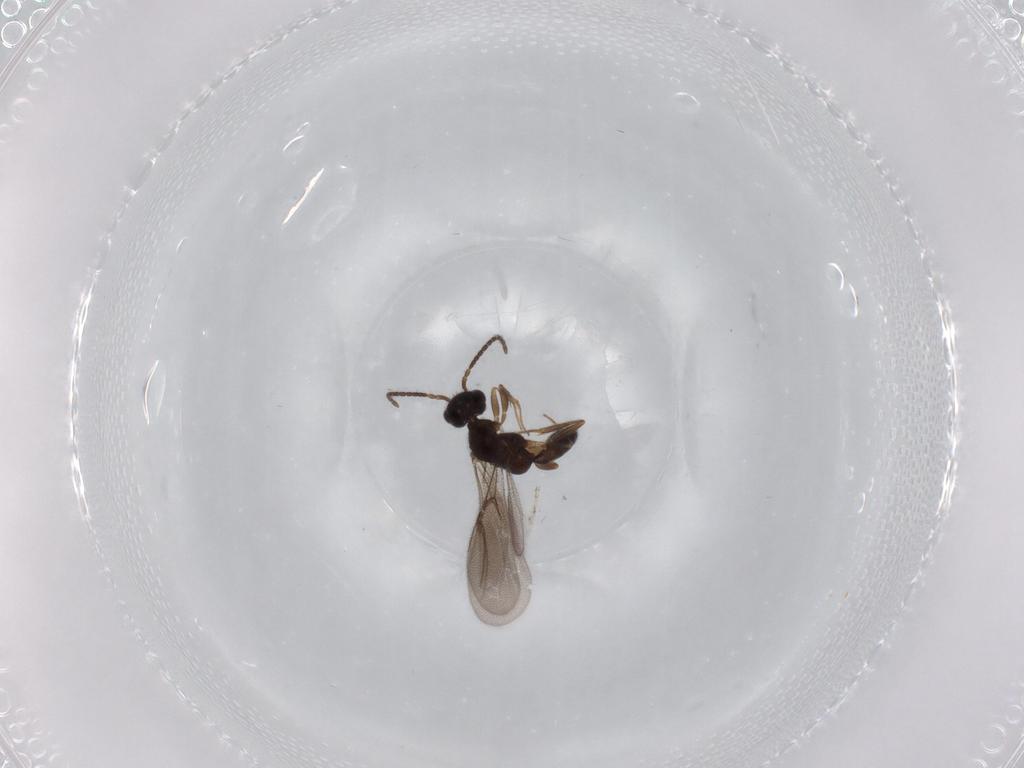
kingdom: Animalia
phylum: Arthropoda
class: Insecta
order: Hymenoptera
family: Bethylidae
